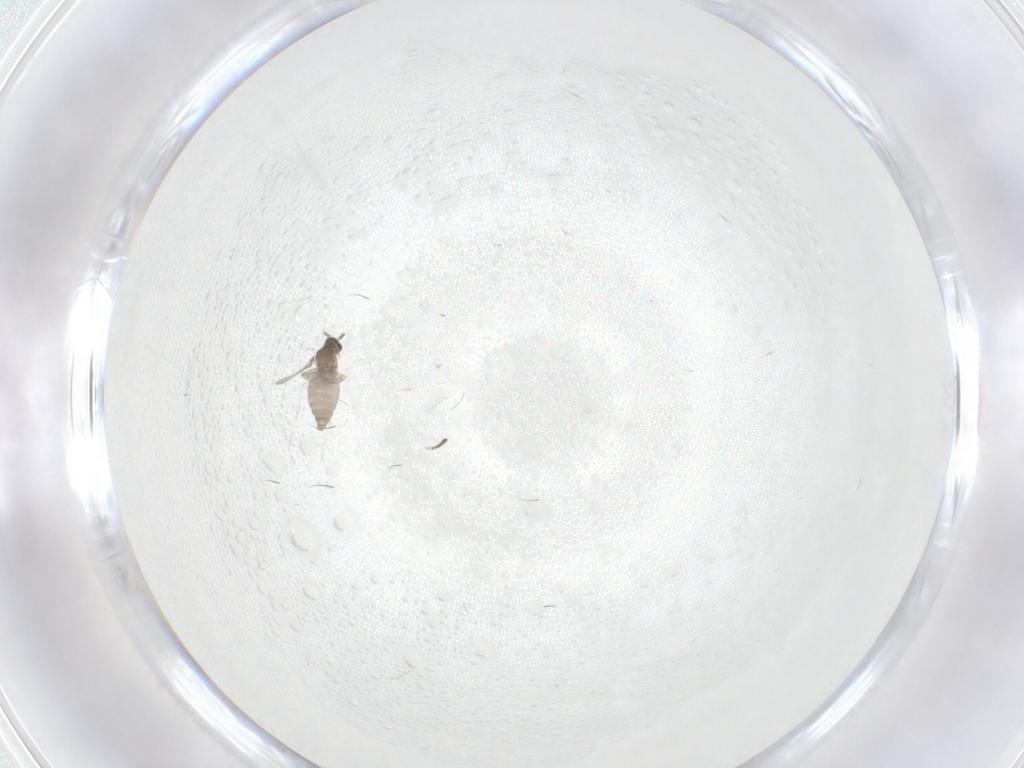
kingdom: Animalia
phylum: Arthropoda
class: Insecta
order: Diptera
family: Cecidomyiidae
